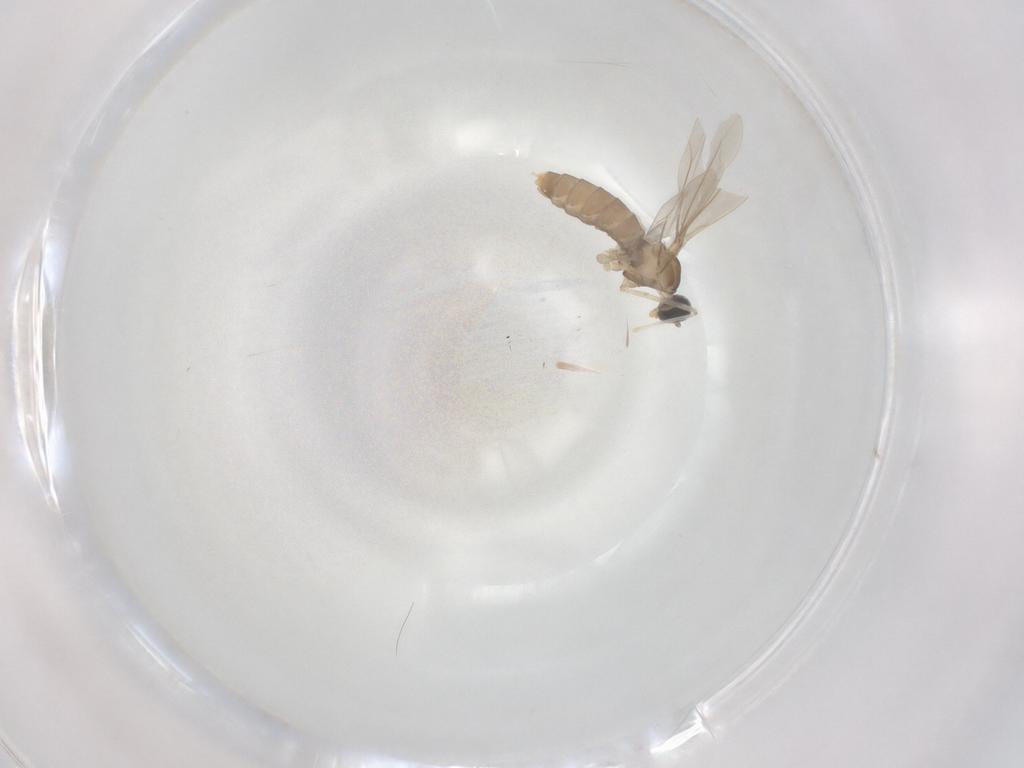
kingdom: Animalia
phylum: Arthropoda
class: Insecta
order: Diptera
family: Cecidomyiidae
